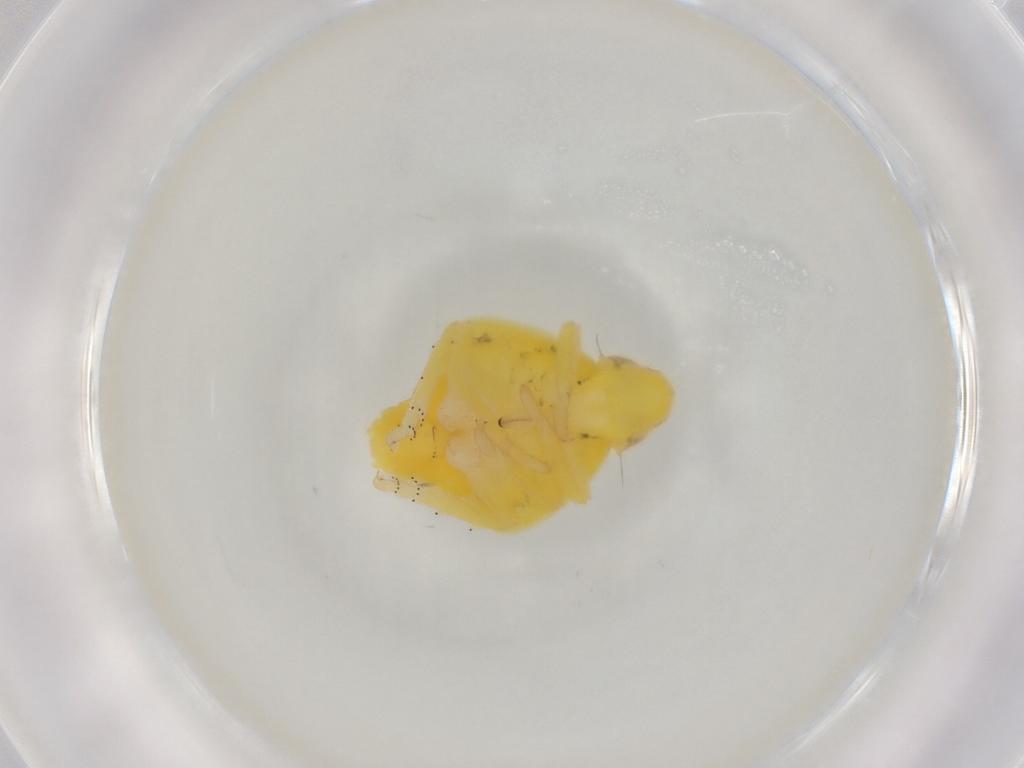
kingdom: Animalia
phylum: Arthropoda
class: Insecta
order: Hemiptera
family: Tropiduchidae
